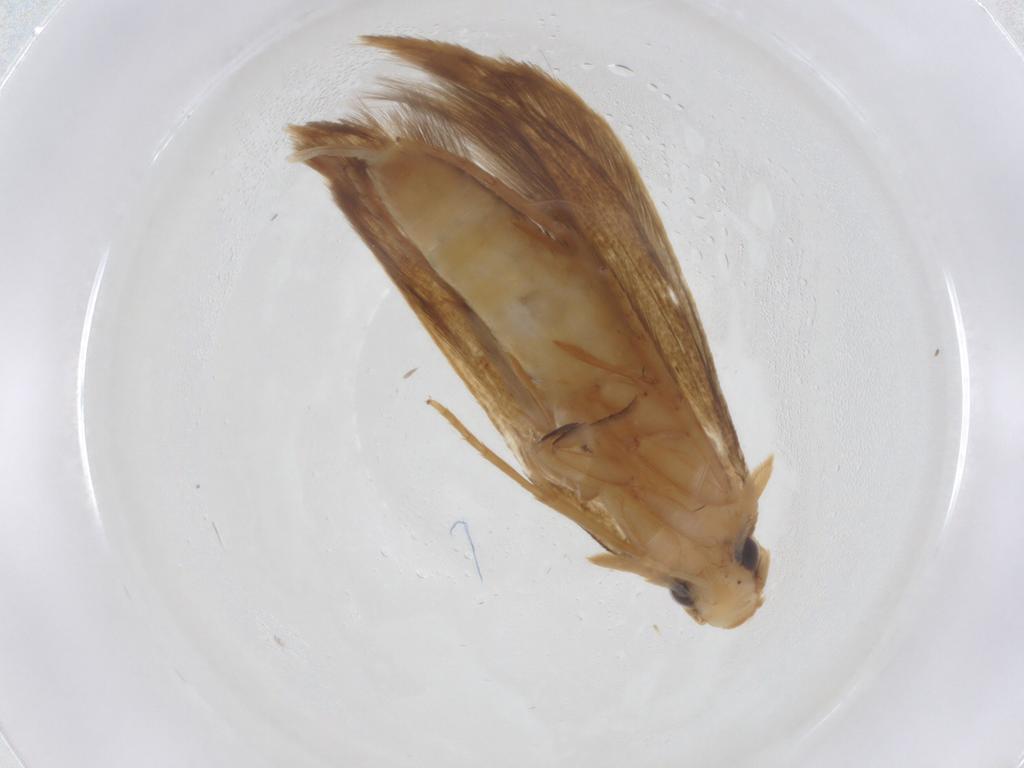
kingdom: Animalia
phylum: Arthropoda
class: Insecta
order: Lepidoptera
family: Tineidae
